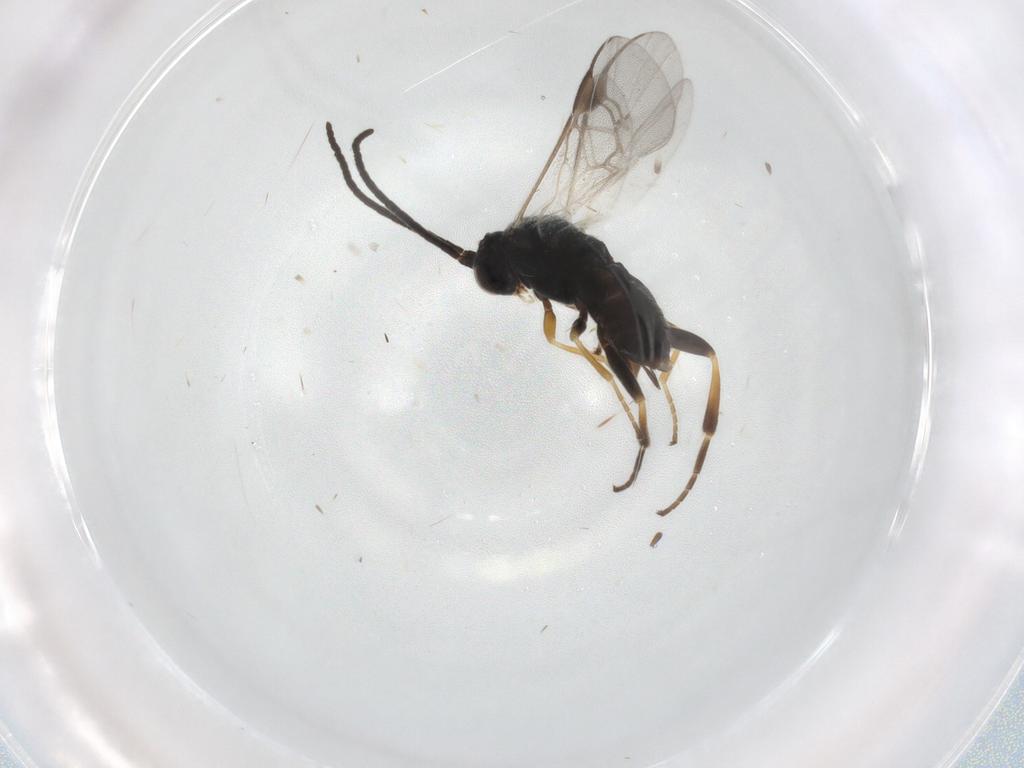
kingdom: Animalia
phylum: Arthropoda
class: Insecta
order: Hymenoptera
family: Braconidae
